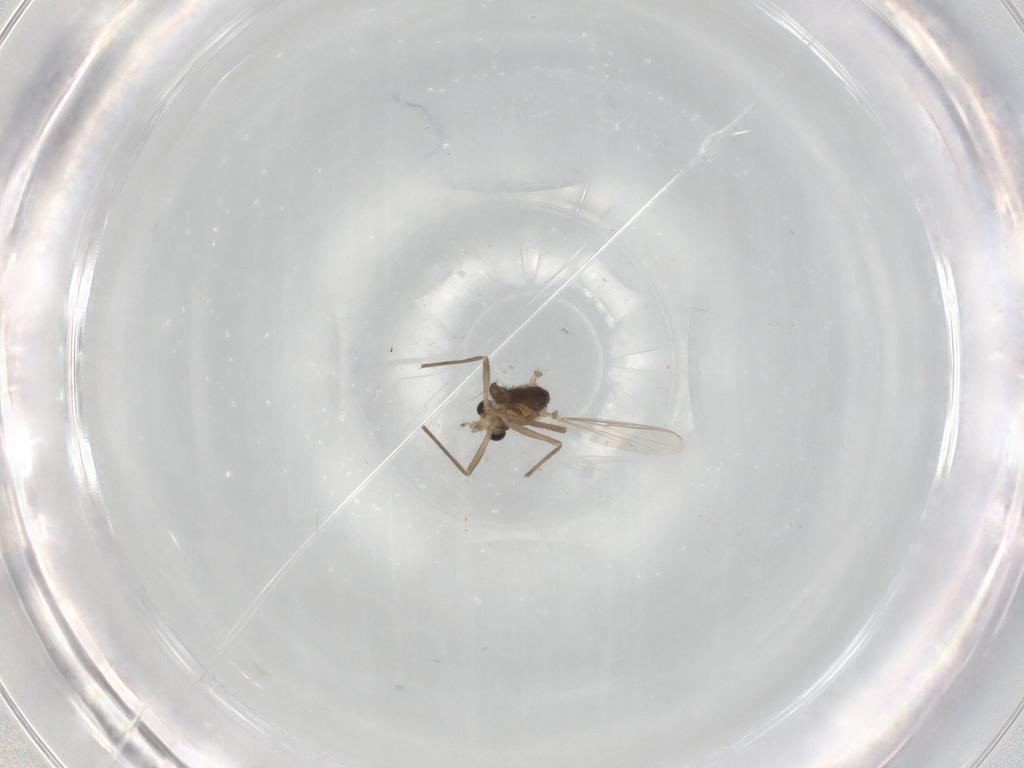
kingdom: Animalia
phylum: Arthropoda
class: Insecta
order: Diptera
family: Chironomidae
